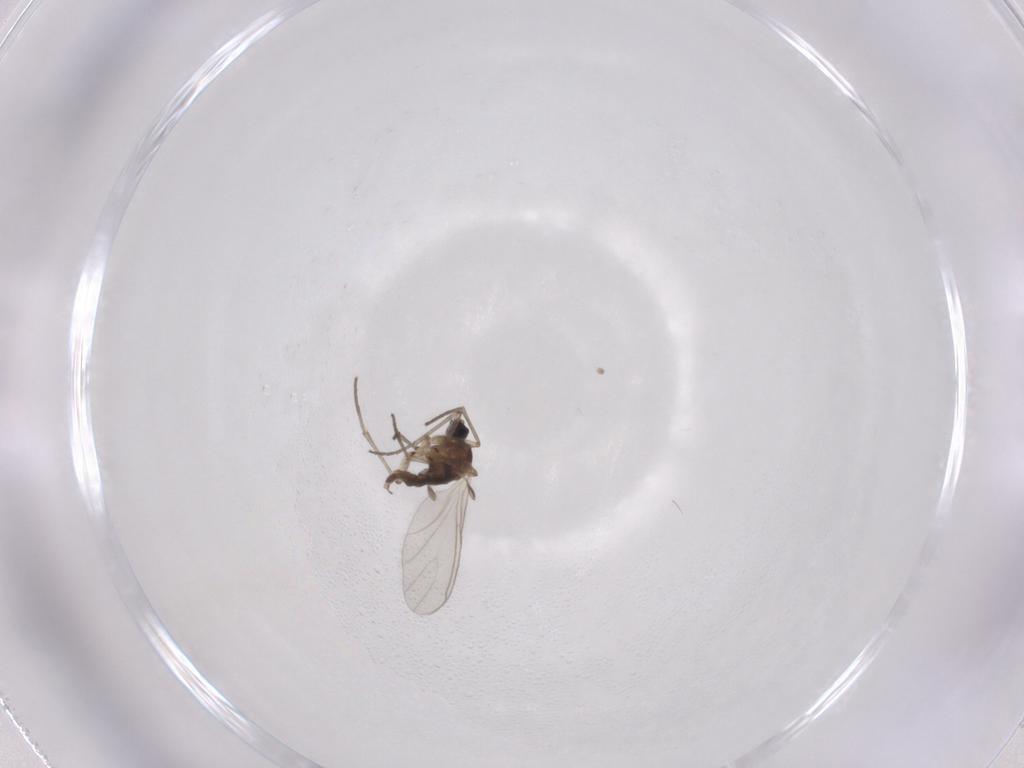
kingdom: Animalia
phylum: Arthropoda
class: Insecta
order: Diptera
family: Sciaridae
